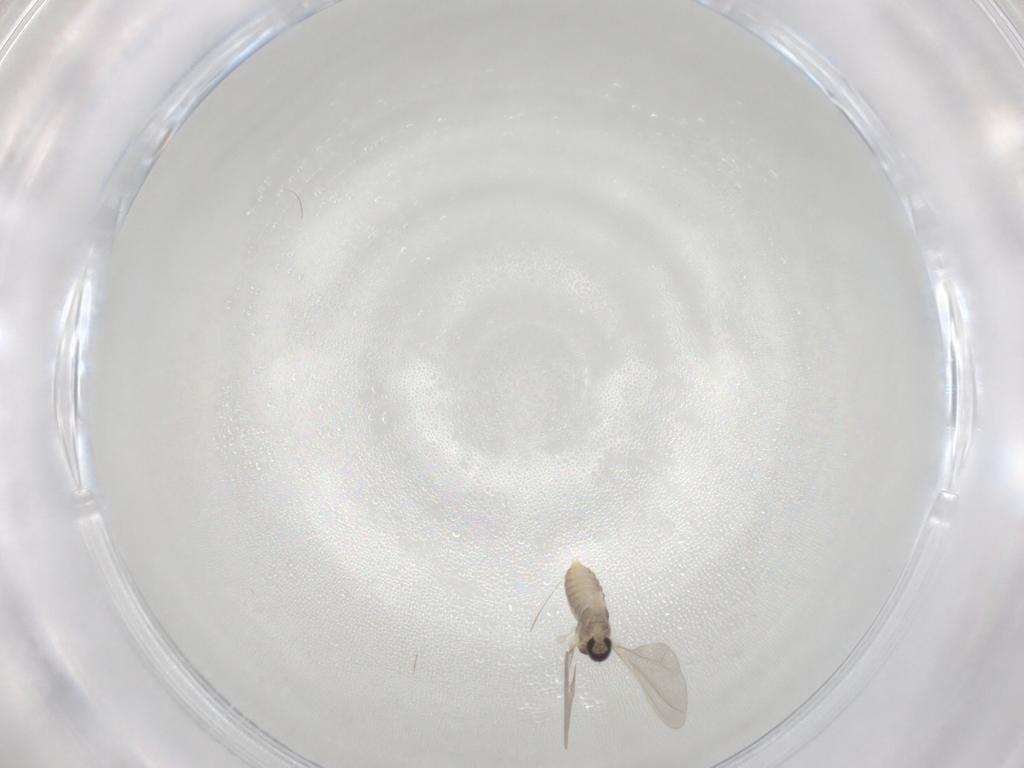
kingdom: Animalia
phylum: Arthropoda
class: Insecta
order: Diptera
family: Cecidomyiidae
